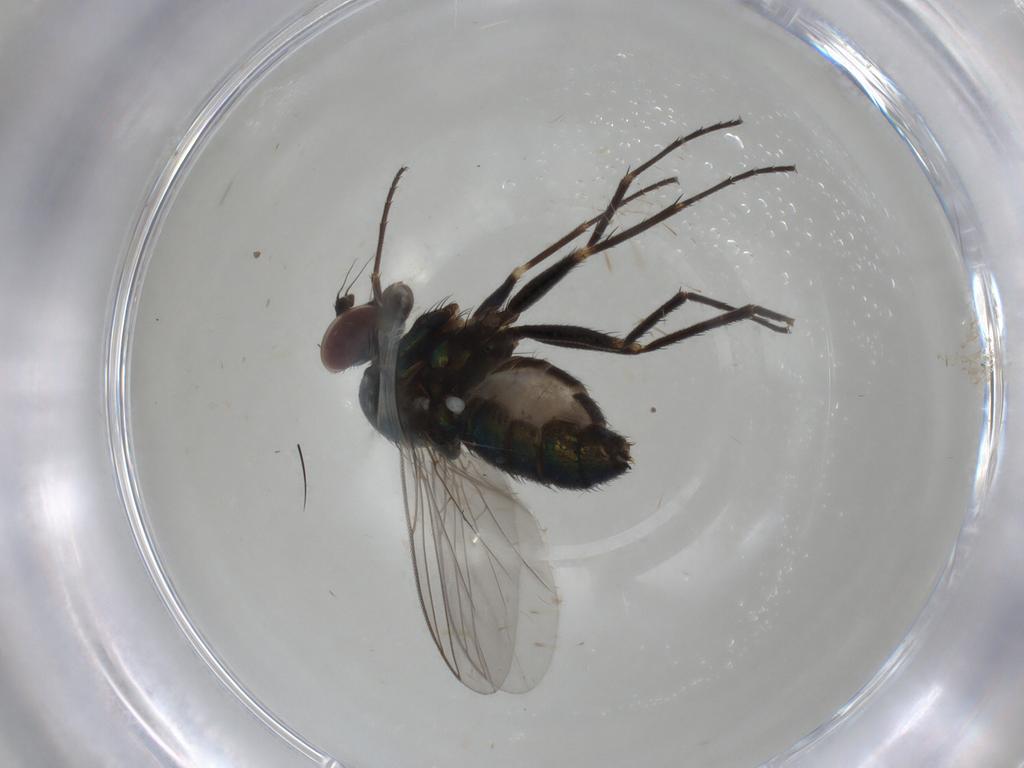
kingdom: Animalia
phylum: Arthropoda
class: Insecta
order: Diptera
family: Dolichopodidae
